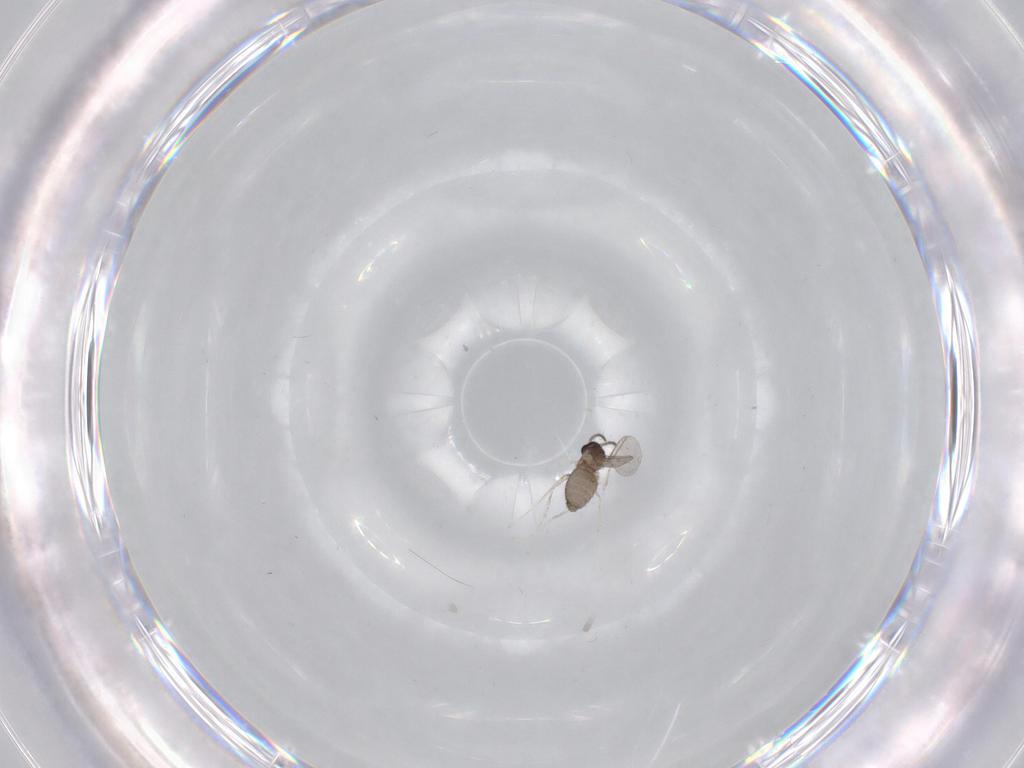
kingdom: Animalia
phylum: Arthropoda
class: Insecta
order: Diptera
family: Cecidomyiidae
